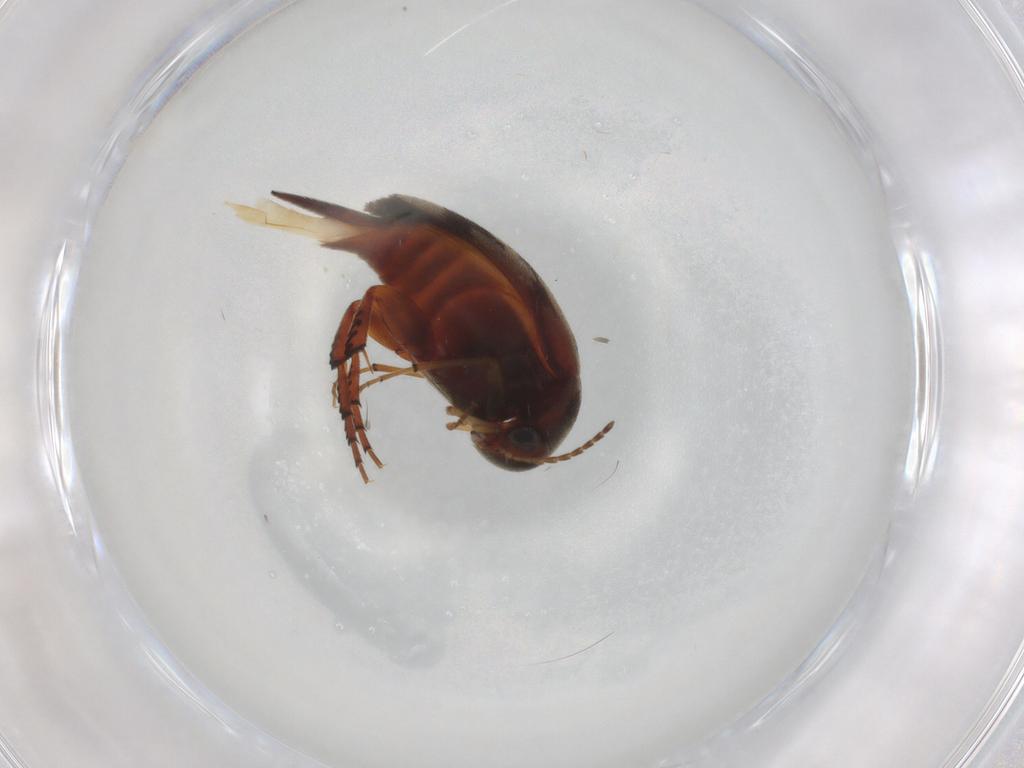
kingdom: Animalia
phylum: Arthropoda
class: Insecta
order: Coleoptera
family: Mordellidae
